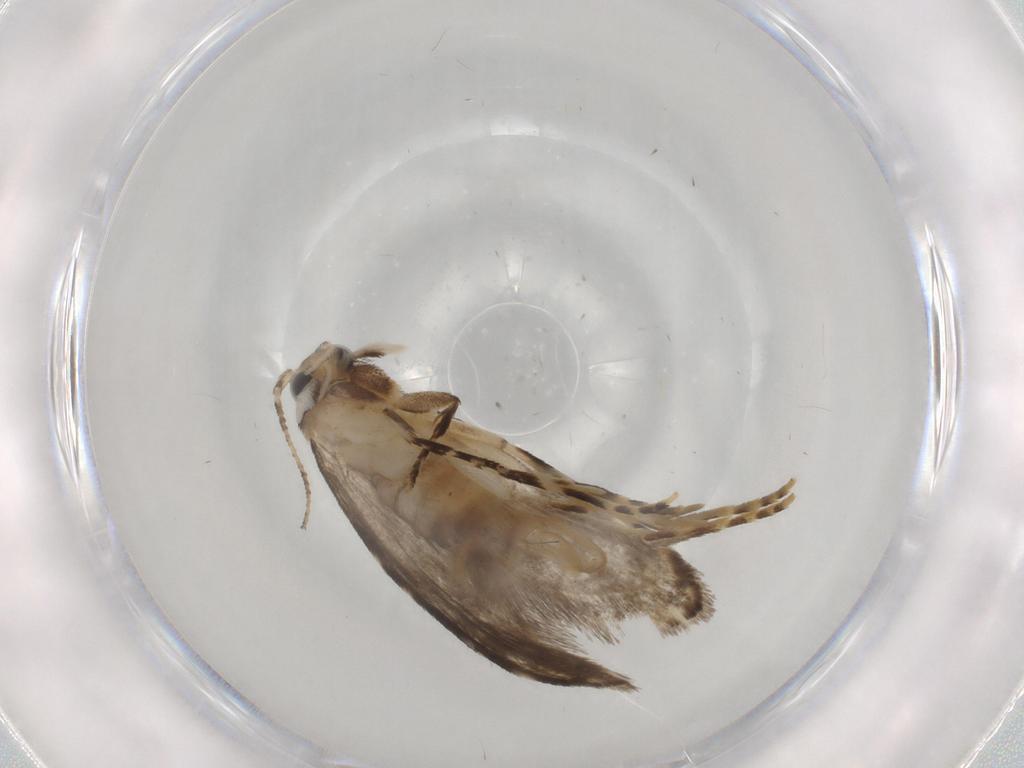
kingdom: Animalia
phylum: Arthropoda
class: Insecta
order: Lepidoptera
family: Tineidae
